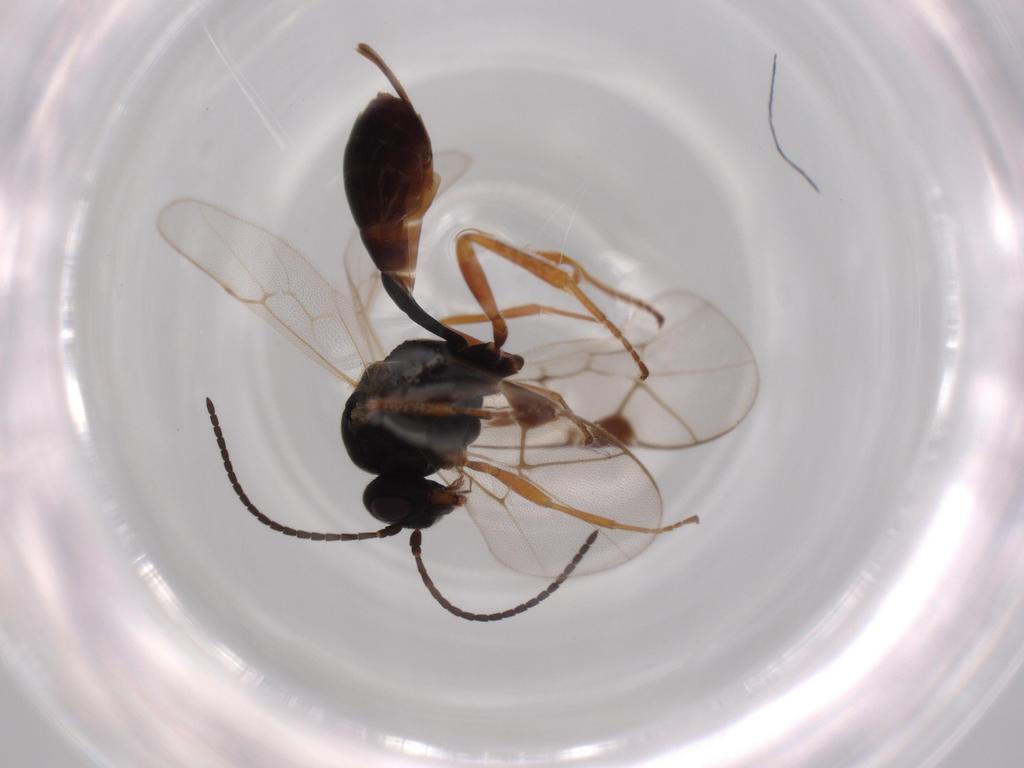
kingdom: Animalia
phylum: Arthropoda
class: Insecta
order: Hymenoptera
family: Ichneumonidae
